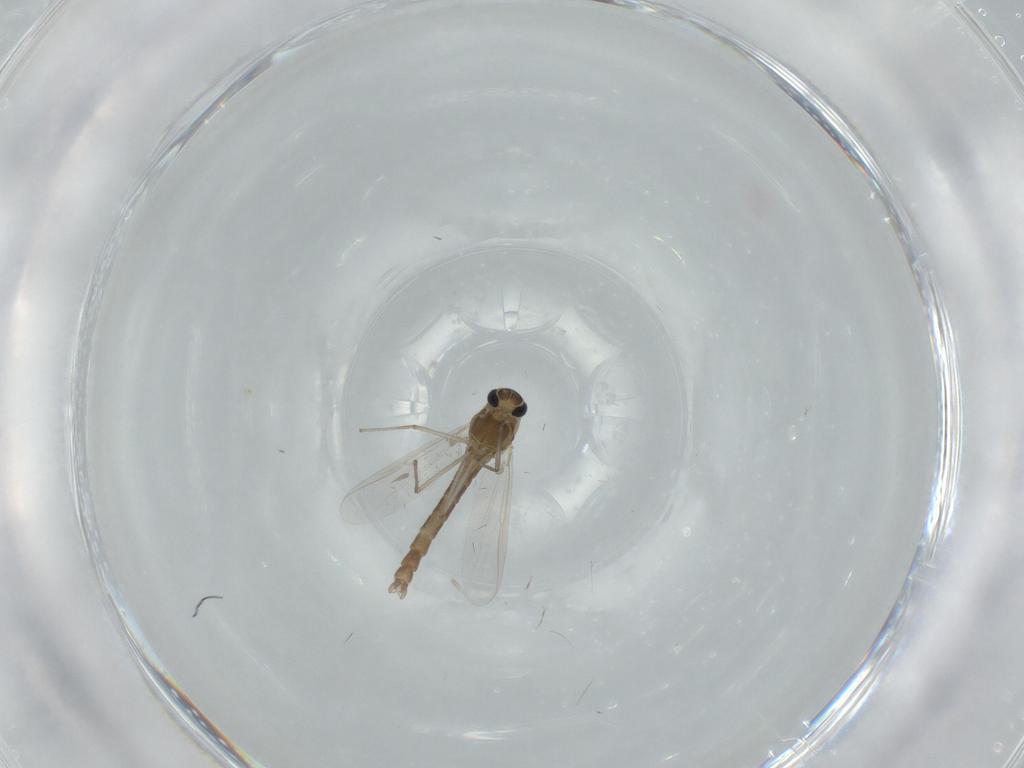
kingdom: Animalia
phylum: Arthropoda
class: Insecta
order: Diptera
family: Chironomidae
